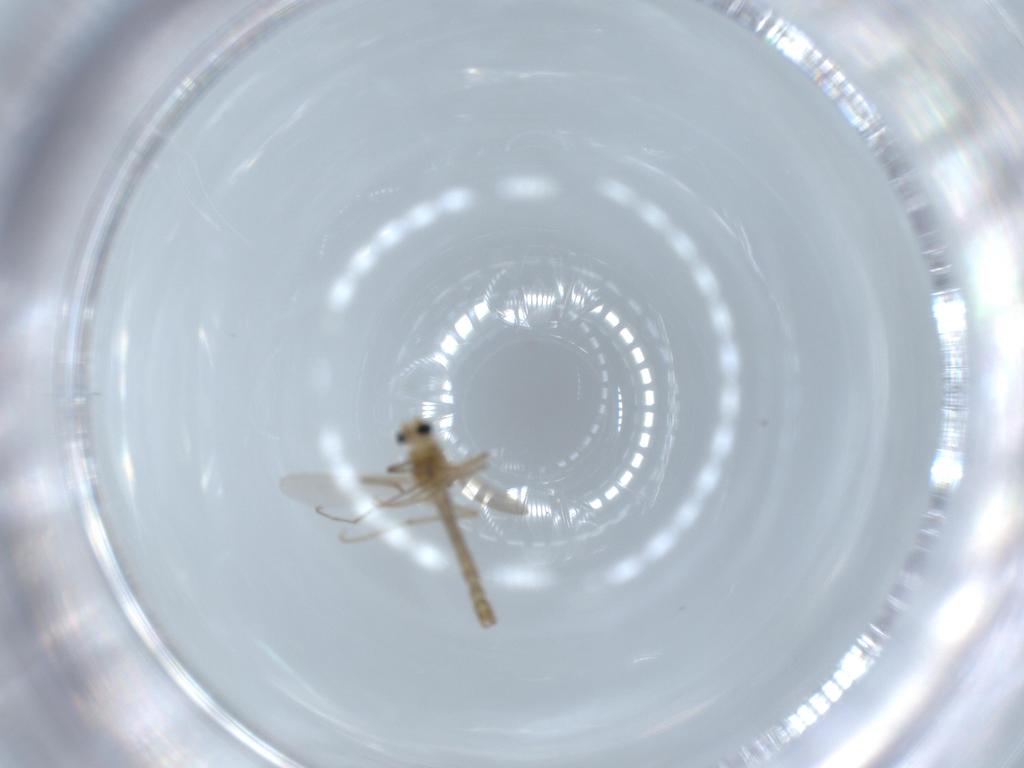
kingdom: Animalia
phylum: Arthropoda
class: Insecta
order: Diptera
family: Chironomidae
